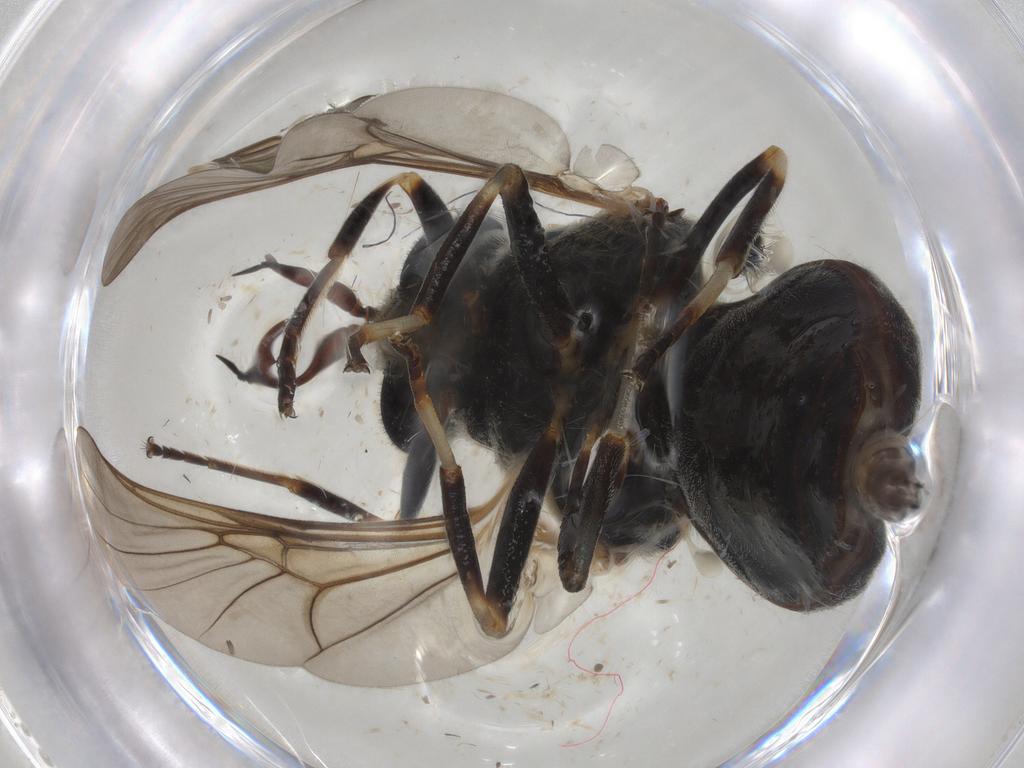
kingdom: Animalia
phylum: Arthropoda
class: Insecta
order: Diptera
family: Stratiomyidae
